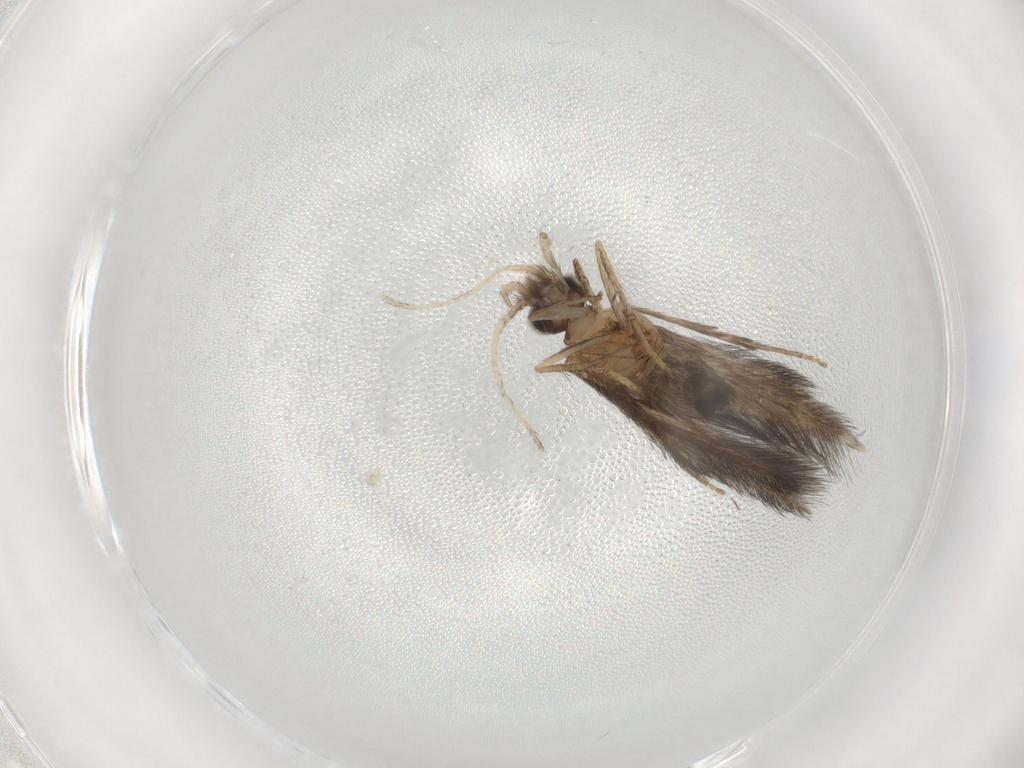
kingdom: Animalia
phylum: Arthropoda
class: Insecta
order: Trichoptera
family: Hydroptilidae
